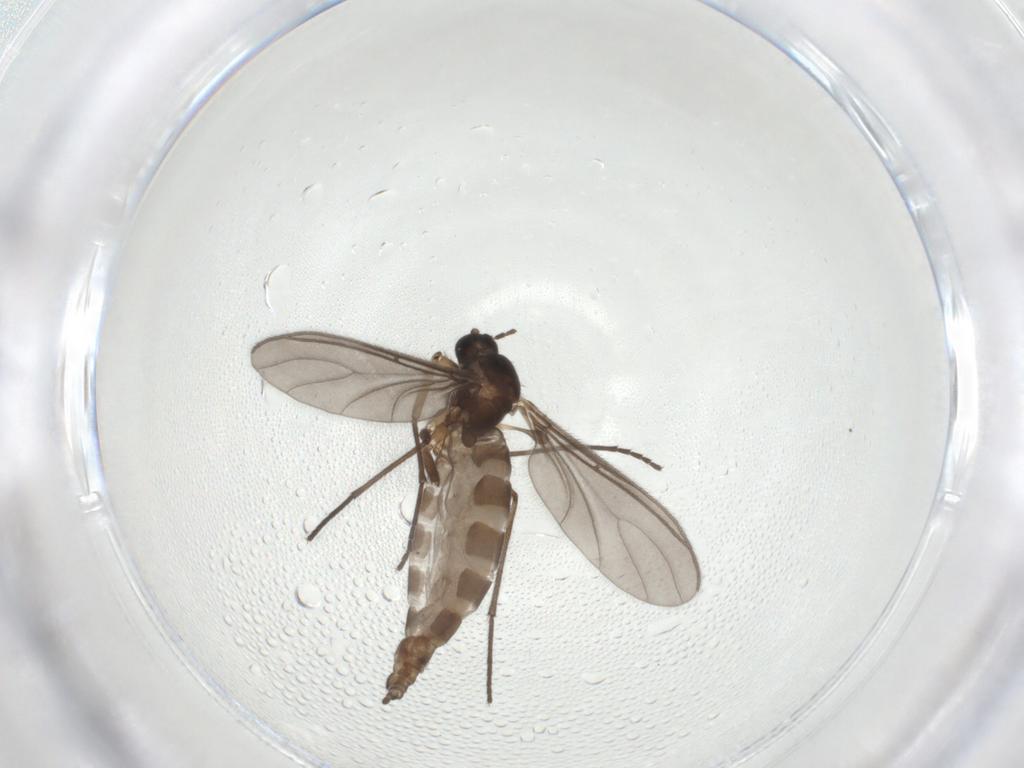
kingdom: Animalia
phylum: Arthropoda
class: Insecta
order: Diptera
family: Sciaridae
